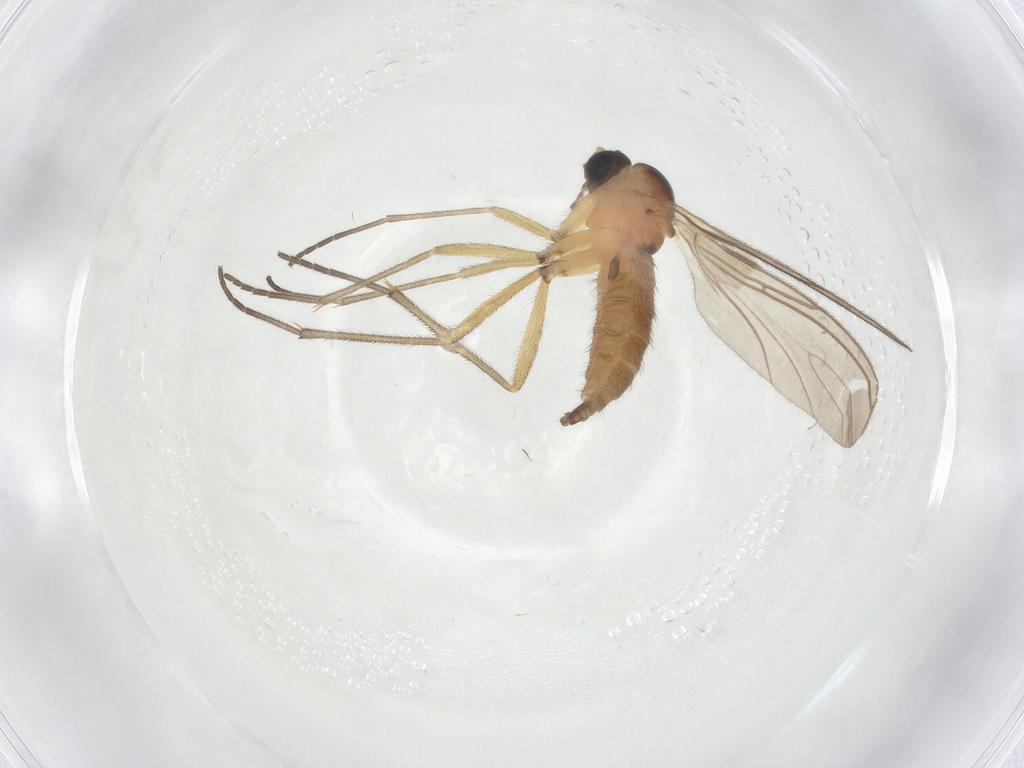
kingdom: Animalia
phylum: Arthropoda
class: Insecta
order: Diptera
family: Sciaridae
